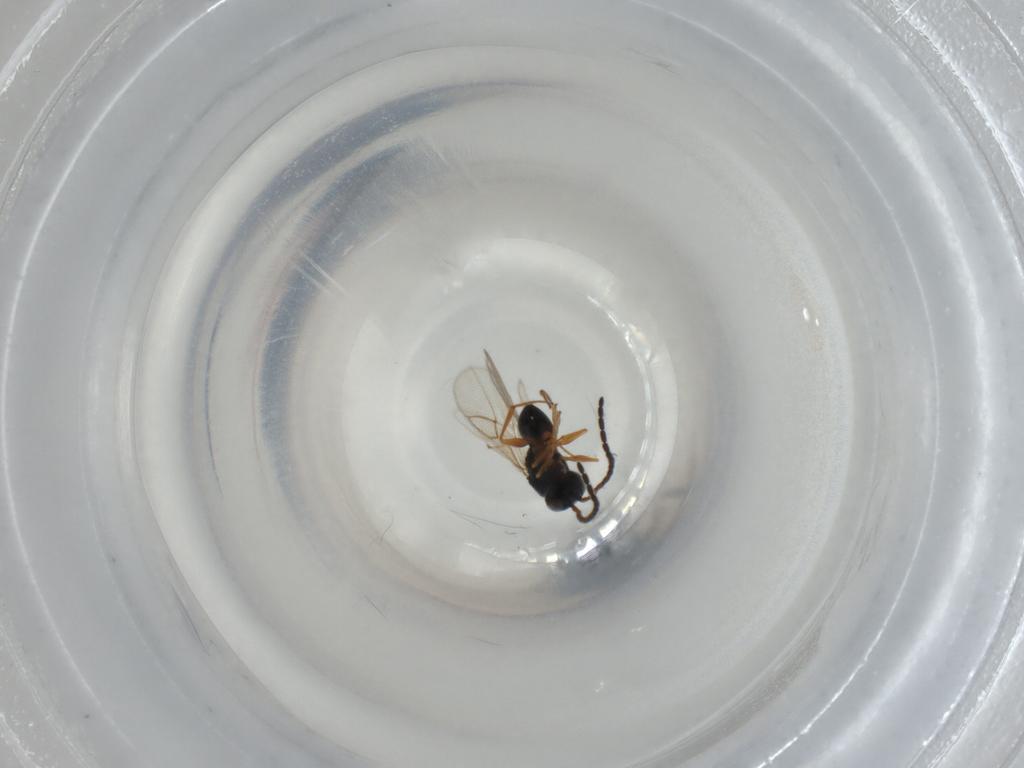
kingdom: Animalia
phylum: Arthropoda
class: Insecta
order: Hymenoptera
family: Figitidae
